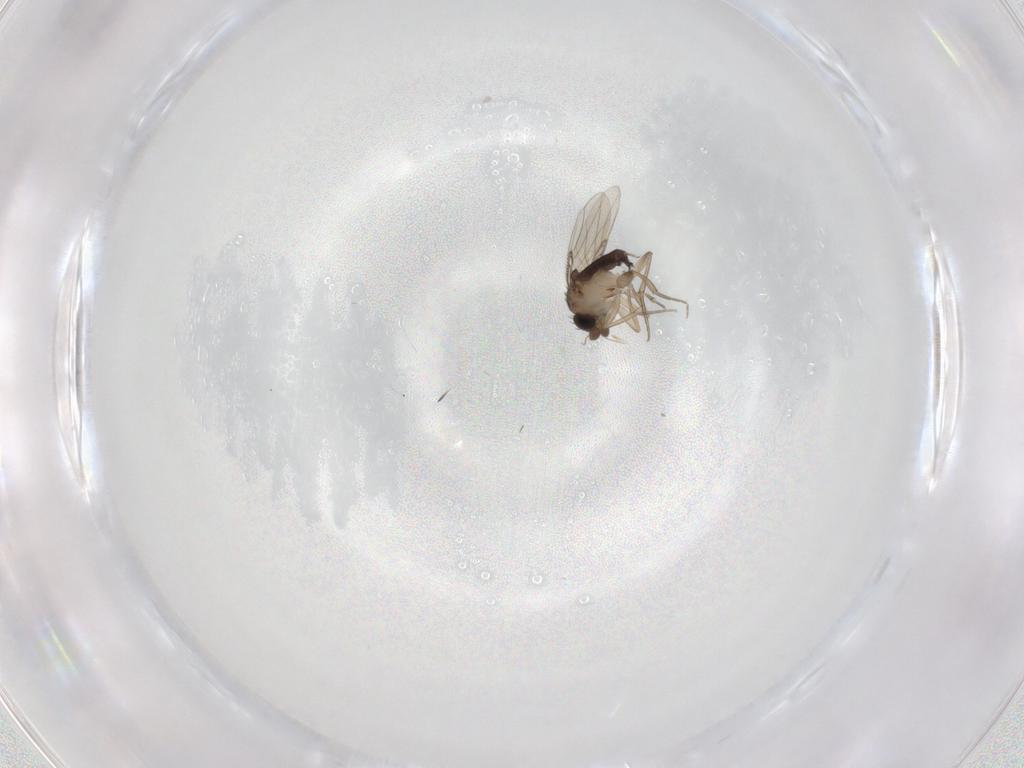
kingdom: Animalia
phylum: Arthropoda
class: Insecta
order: Diptera
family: Phoridae
